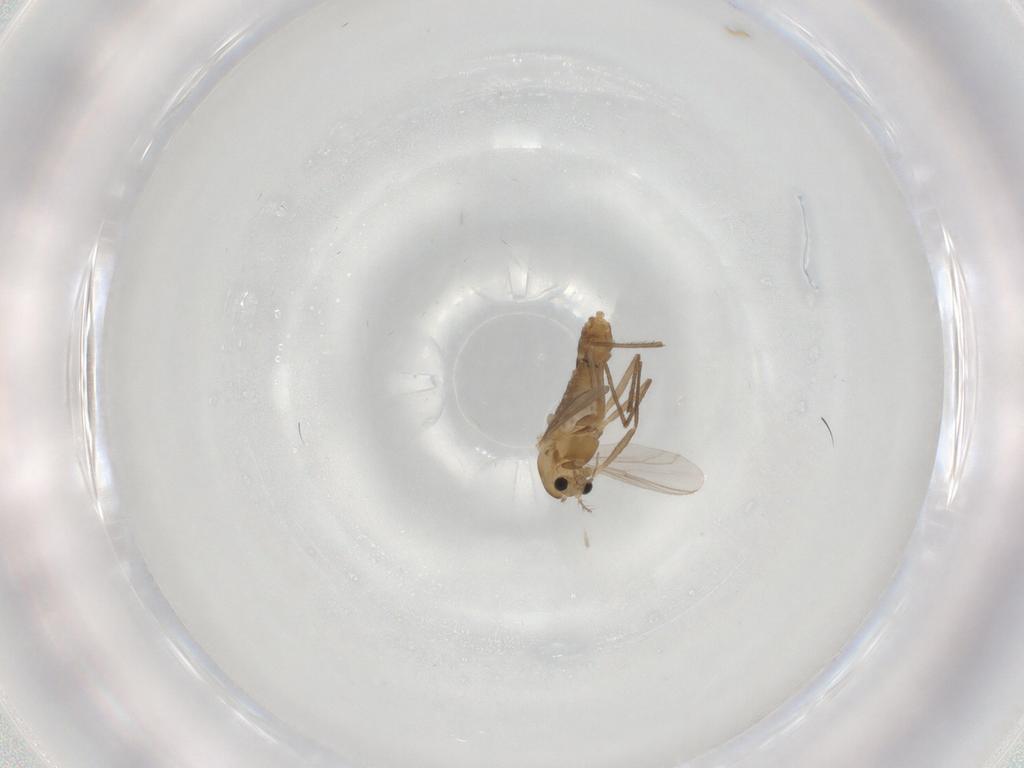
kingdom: Animalia
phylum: Arthropoda
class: Insecta
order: Diptera
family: Chironomidae
